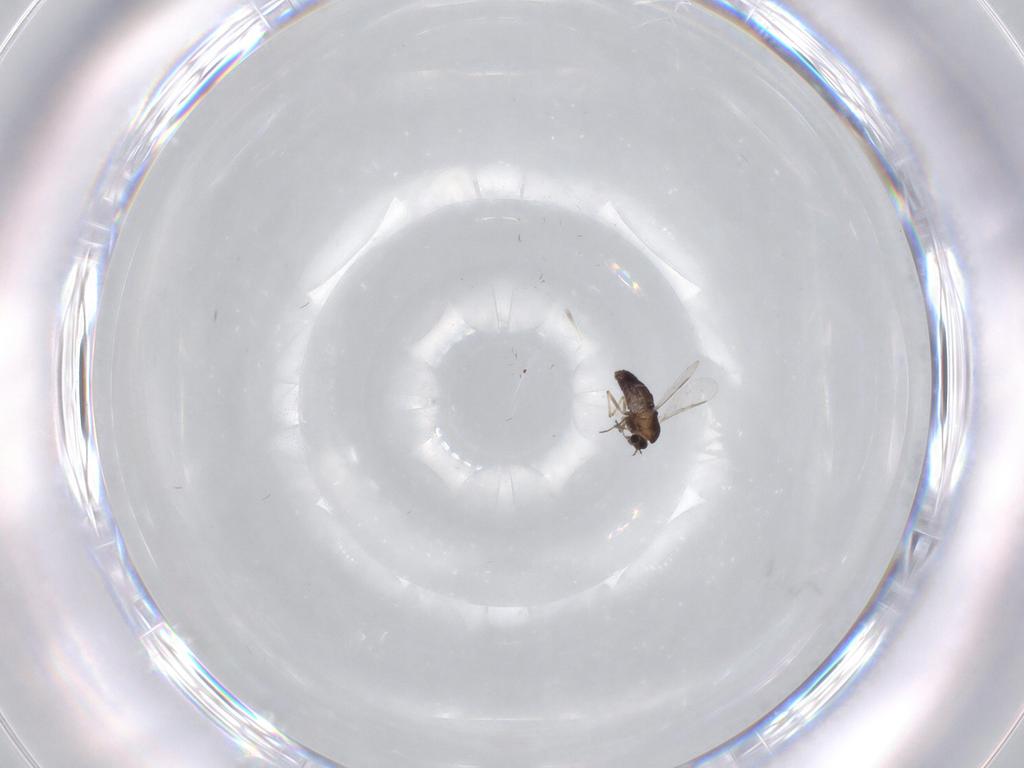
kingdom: Animalia
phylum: Arthropoda
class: Insecta
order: Diptera
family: Chironomidae
